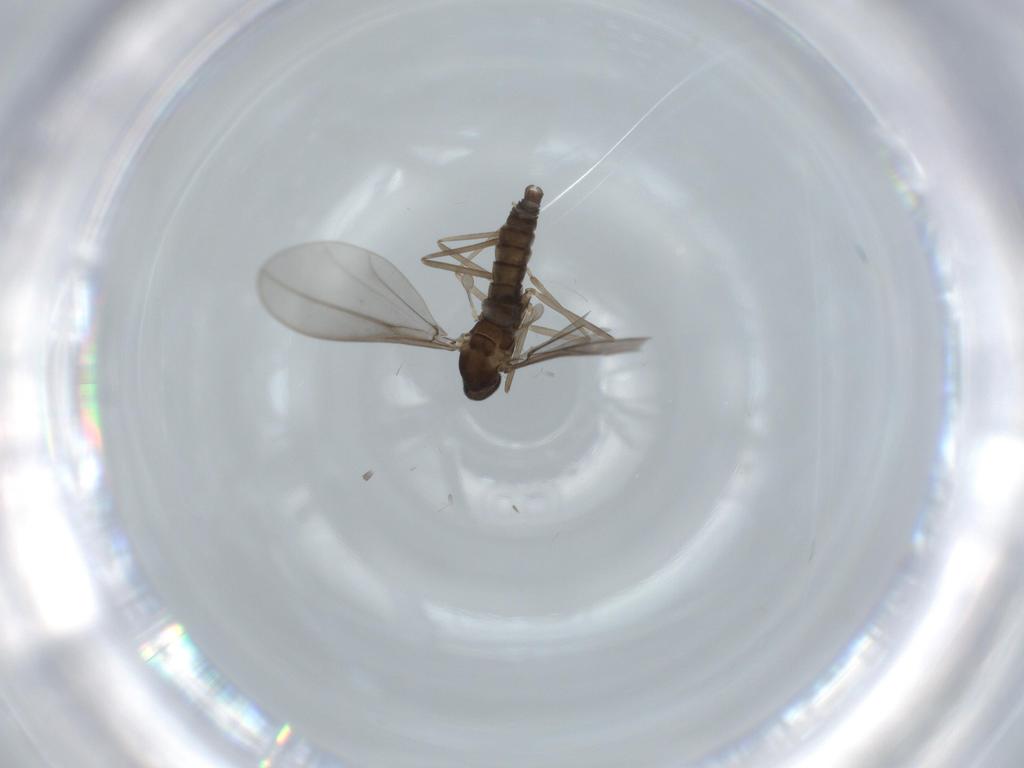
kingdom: Animalia
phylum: Arthropoda
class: Insecta
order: Diptera
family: Cecidomyiidae
